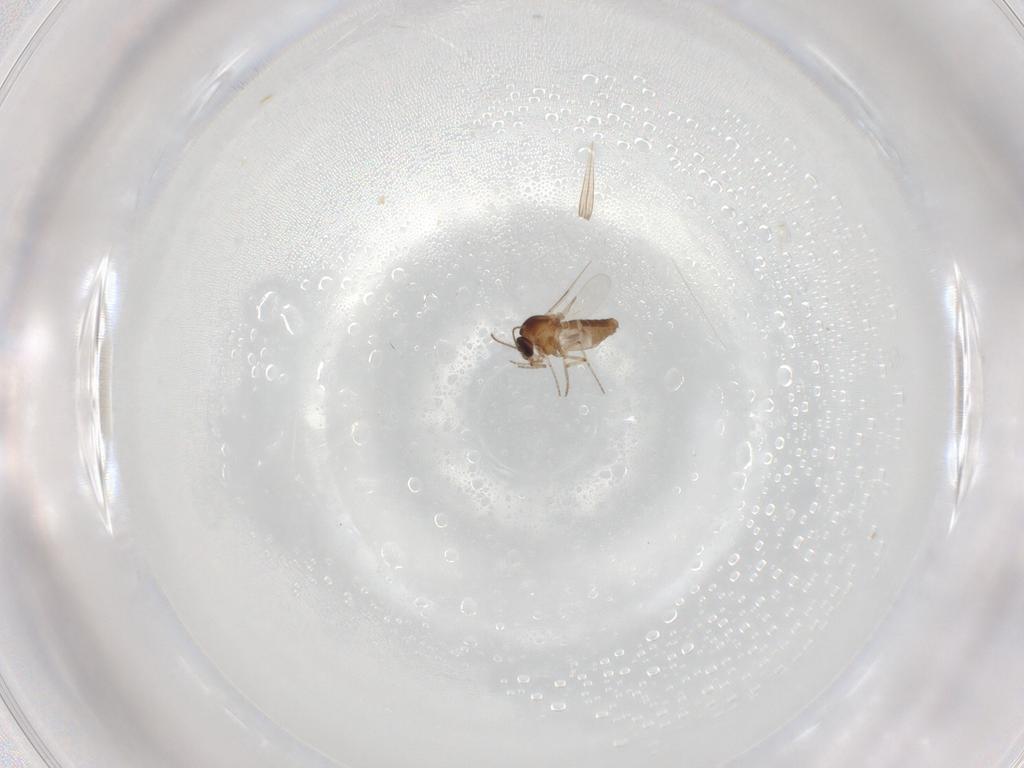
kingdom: Animalia
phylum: Arthropoda
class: Insecta
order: Diptera
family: Ceratopogonidae
